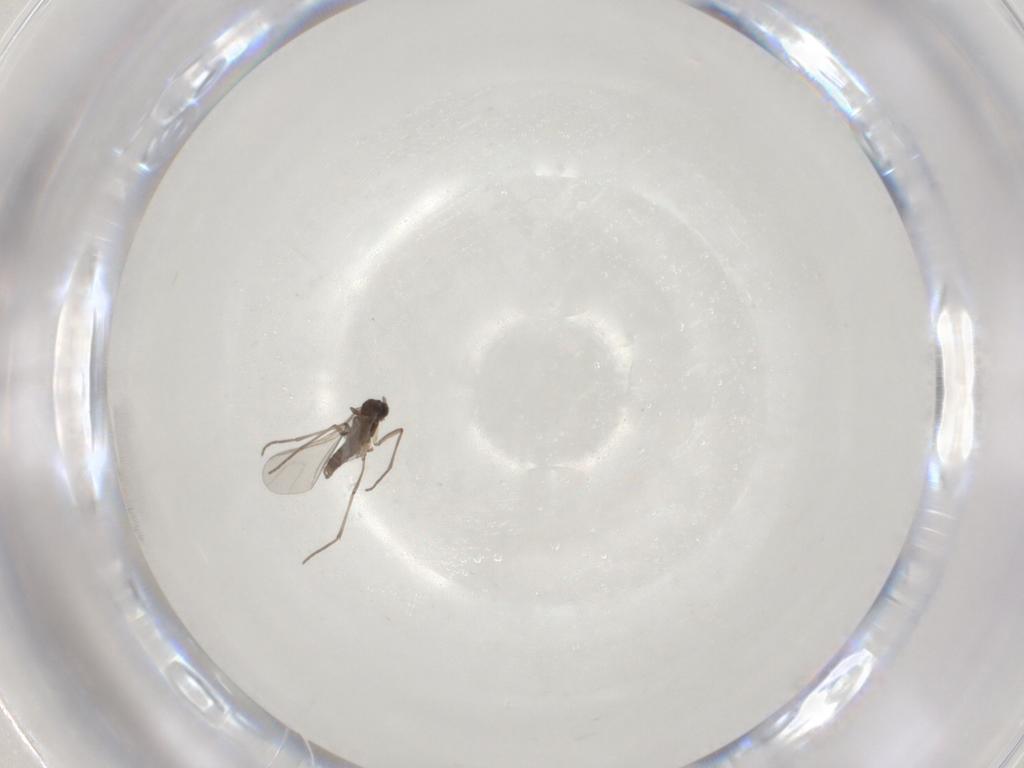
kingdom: Animalia
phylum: Arthropoda
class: Insecta
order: Diptera
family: Sciaridae
